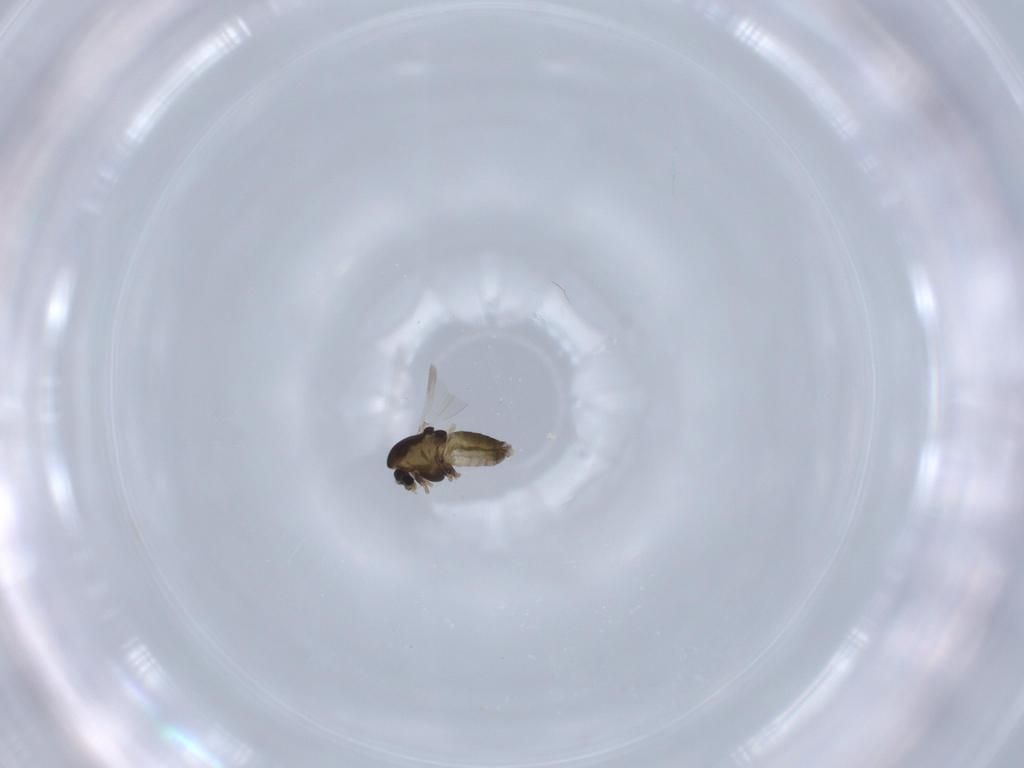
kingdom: Animalia
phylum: Arthropoda
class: Insecta
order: Diptera
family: Chironomidae
